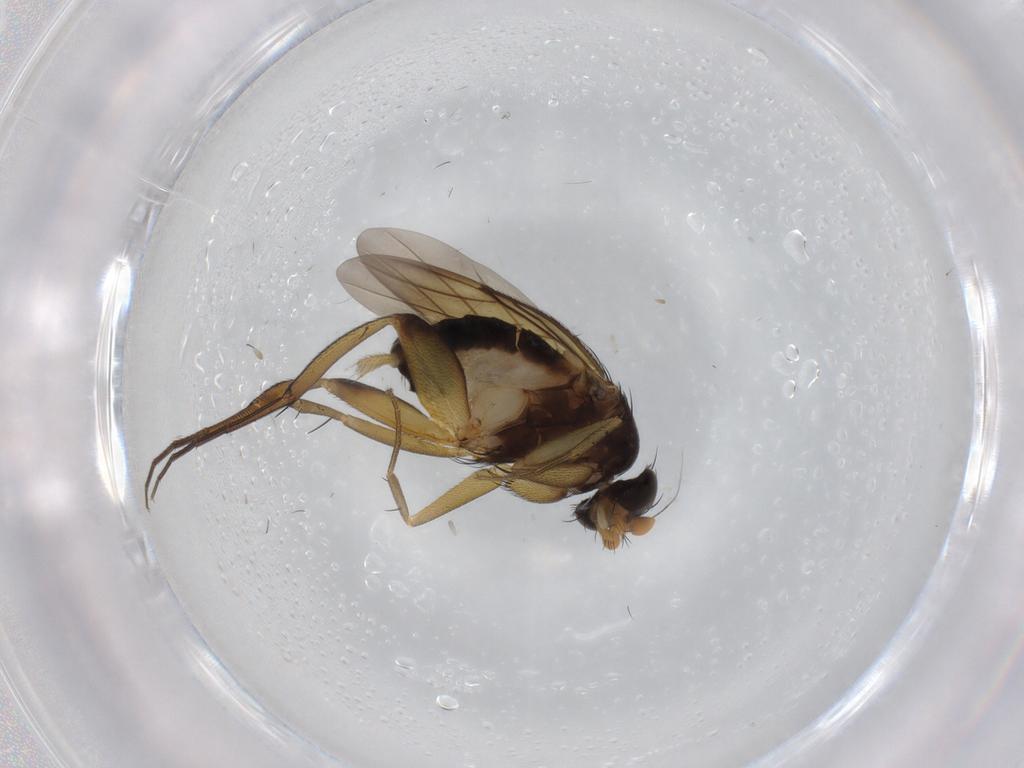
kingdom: Animalia
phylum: Arthropoda
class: Insecta
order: Diptera
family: Phoridae
